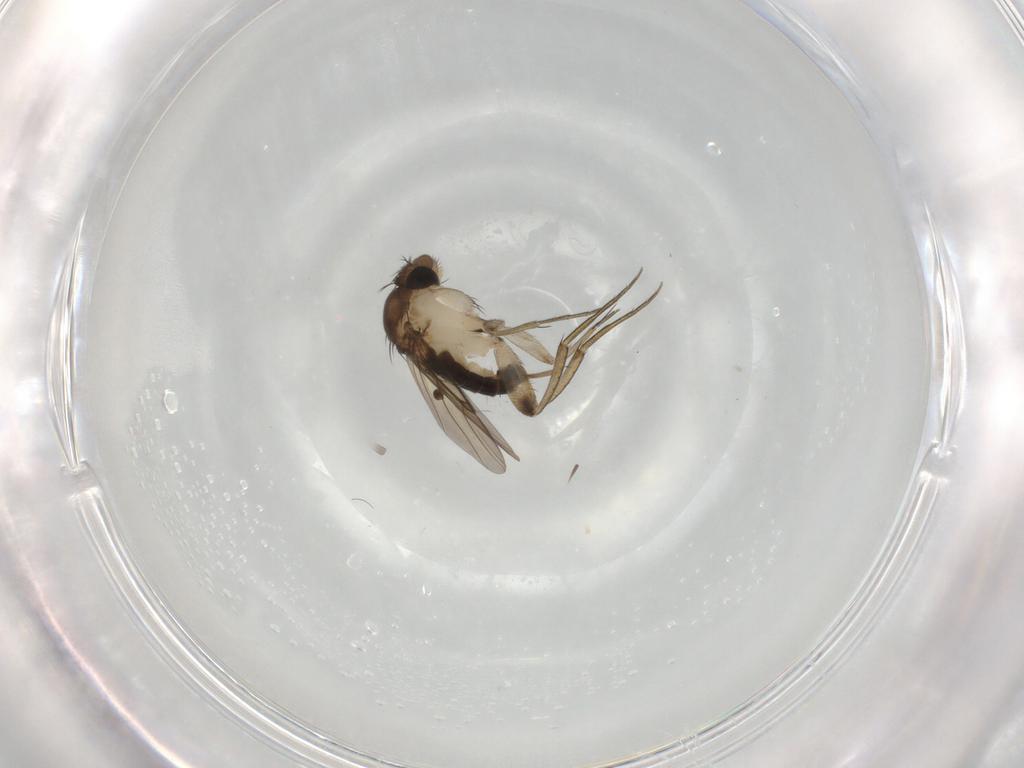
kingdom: Animalia
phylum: Arthropoda
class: Insecta
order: Diptera
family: Phoridae
